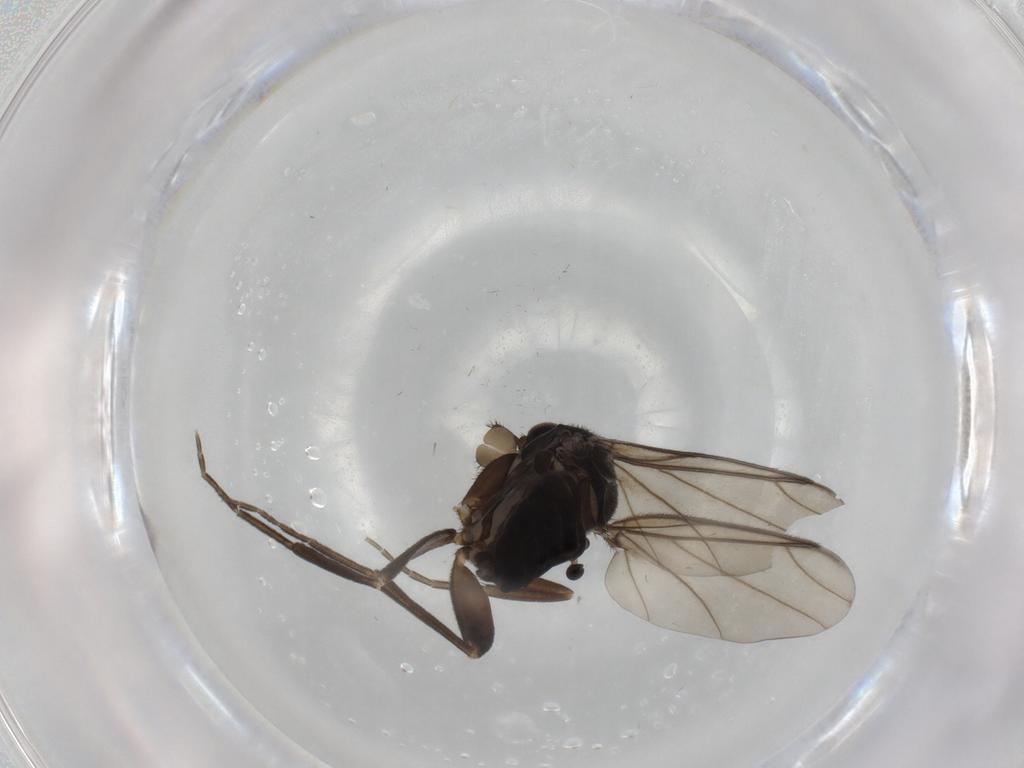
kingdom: Animalia
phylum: Arthropoda
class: Insecta
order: Diptera
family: Phoridae
